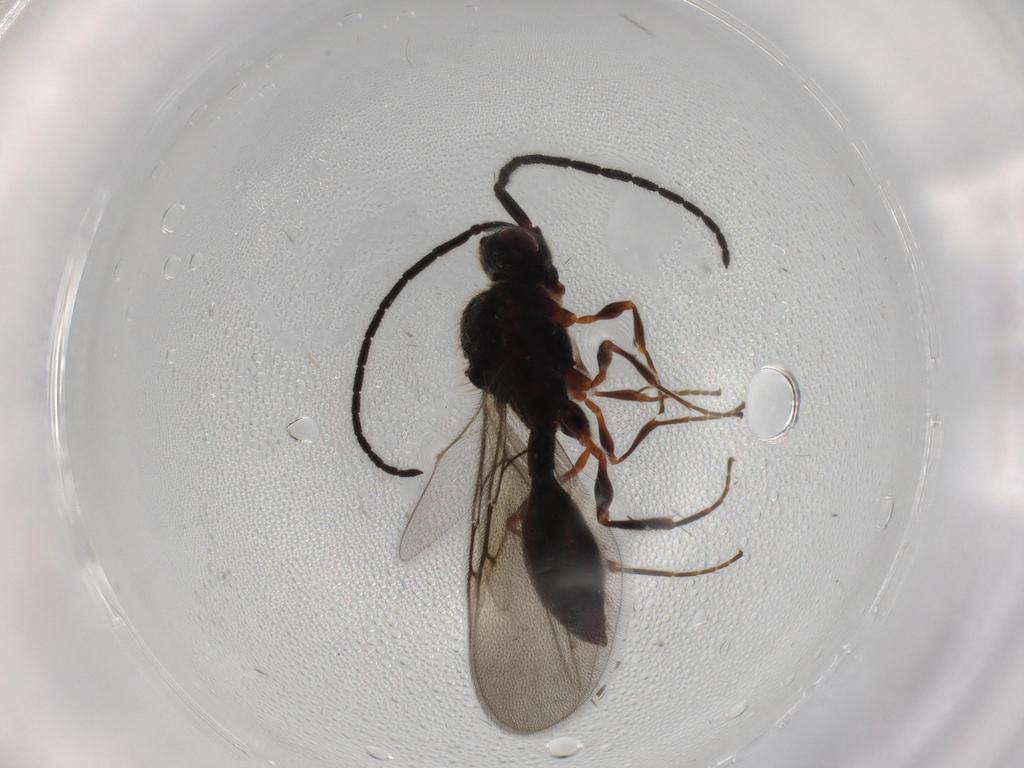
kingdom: Animalia
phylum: Arthropoda
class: Insecta
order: Hymenoptera
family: Diapriidae
